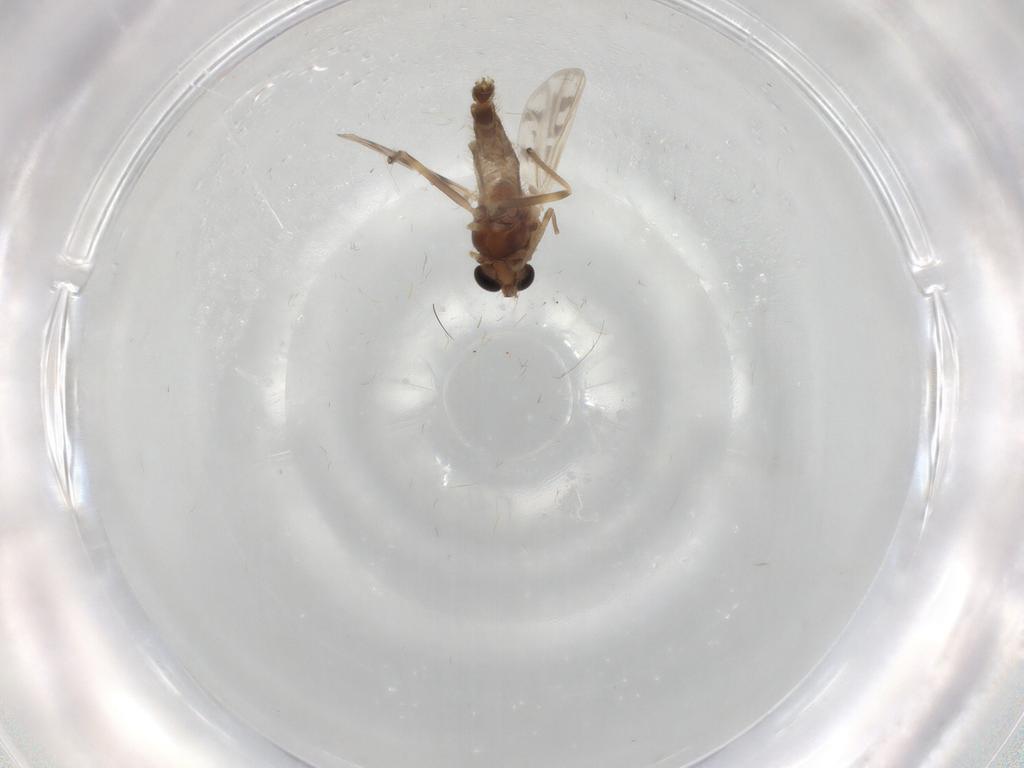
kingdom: Animalia
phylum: Arthropoda
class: Insecta
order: Diptera
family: Chironomidae
